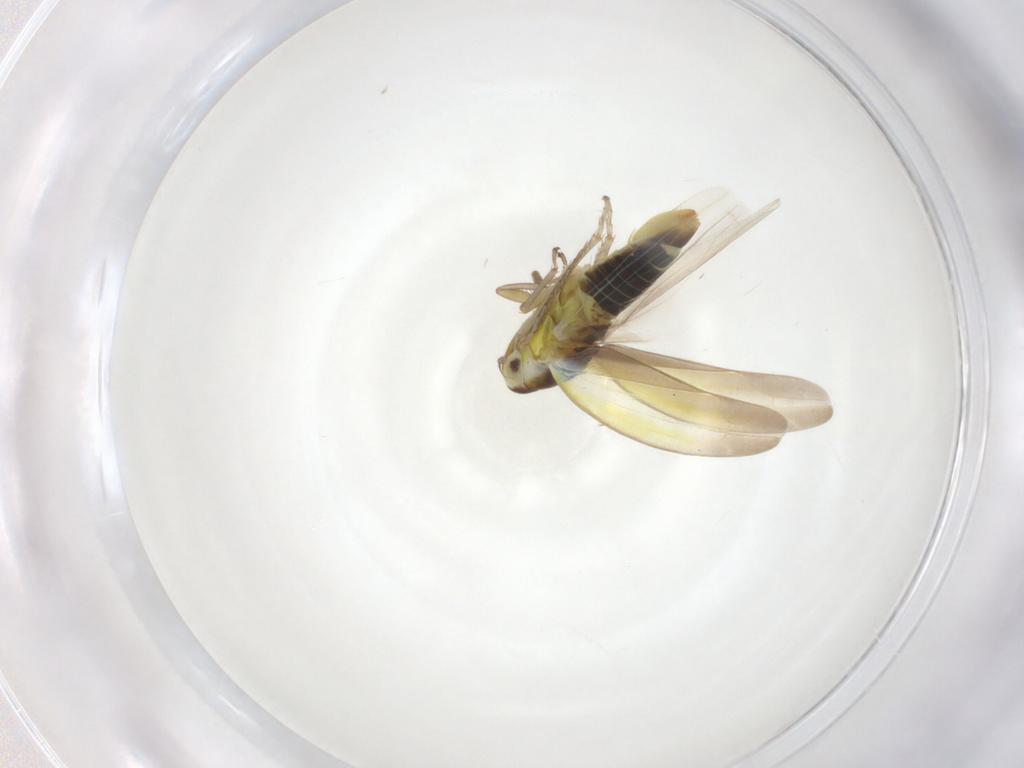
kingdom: Animalia
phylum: Arthropoda
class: Insecta
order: Hemiptera
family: Cicadellidae
